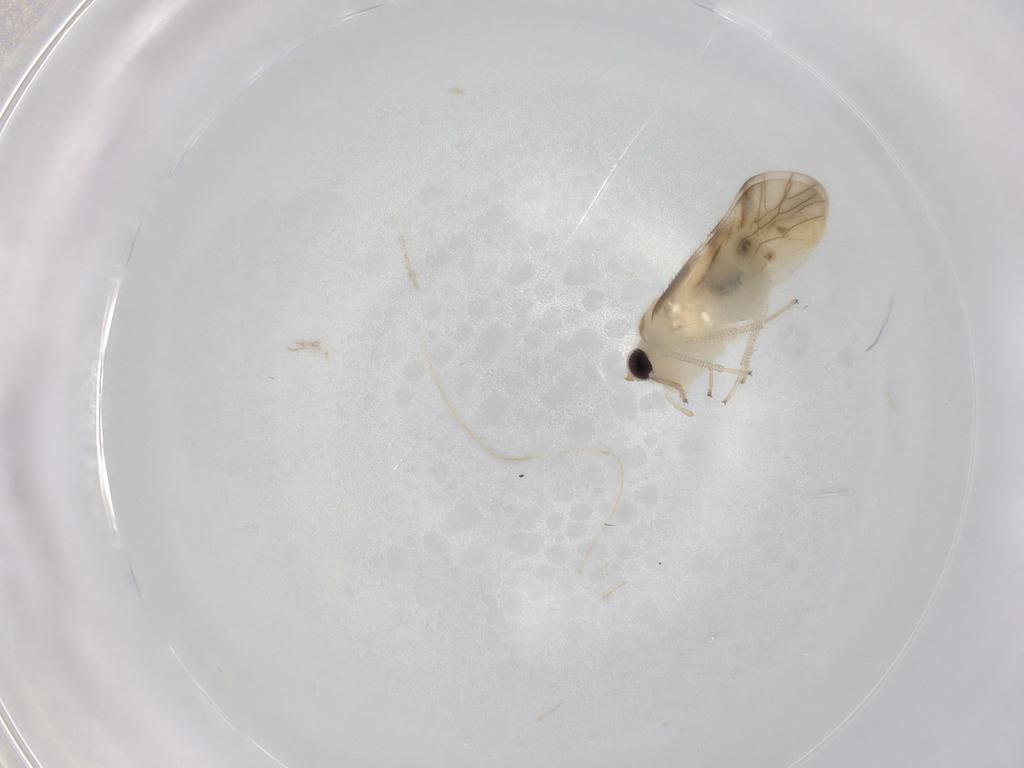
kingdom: Animalia
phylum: Arthropoda
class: Insecta
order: Psocodea
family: Caeciliusidae
